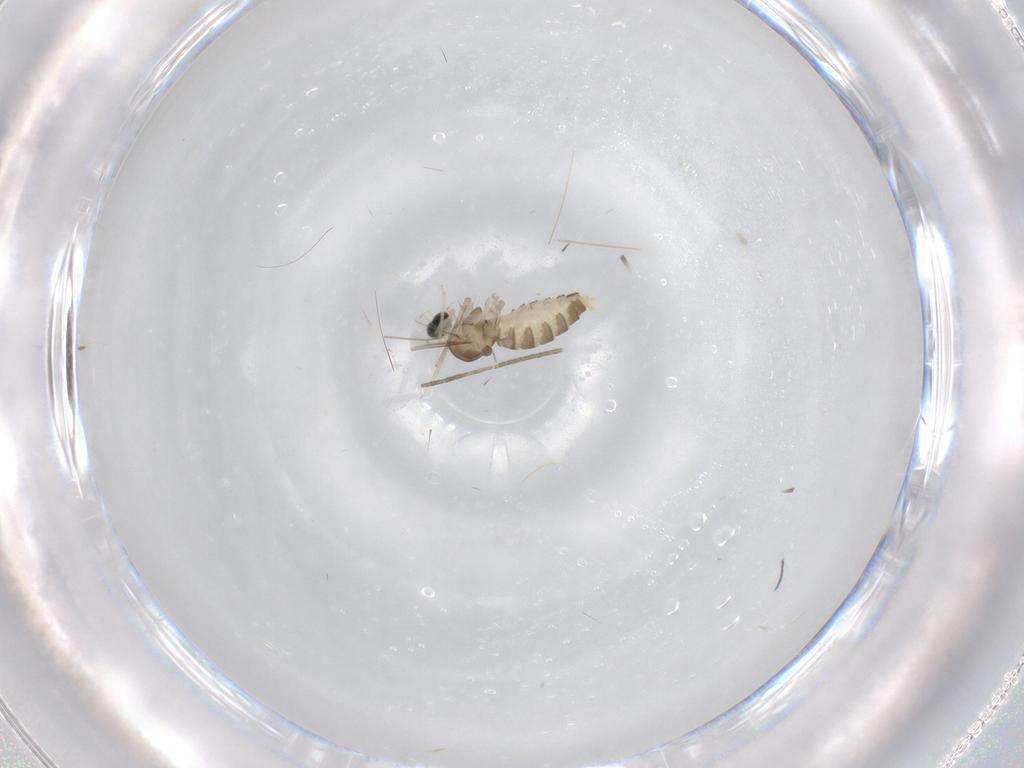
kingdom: Animalia
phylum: Arthropoda
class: Insecta
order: Diptera
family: Cecidomyiidae
